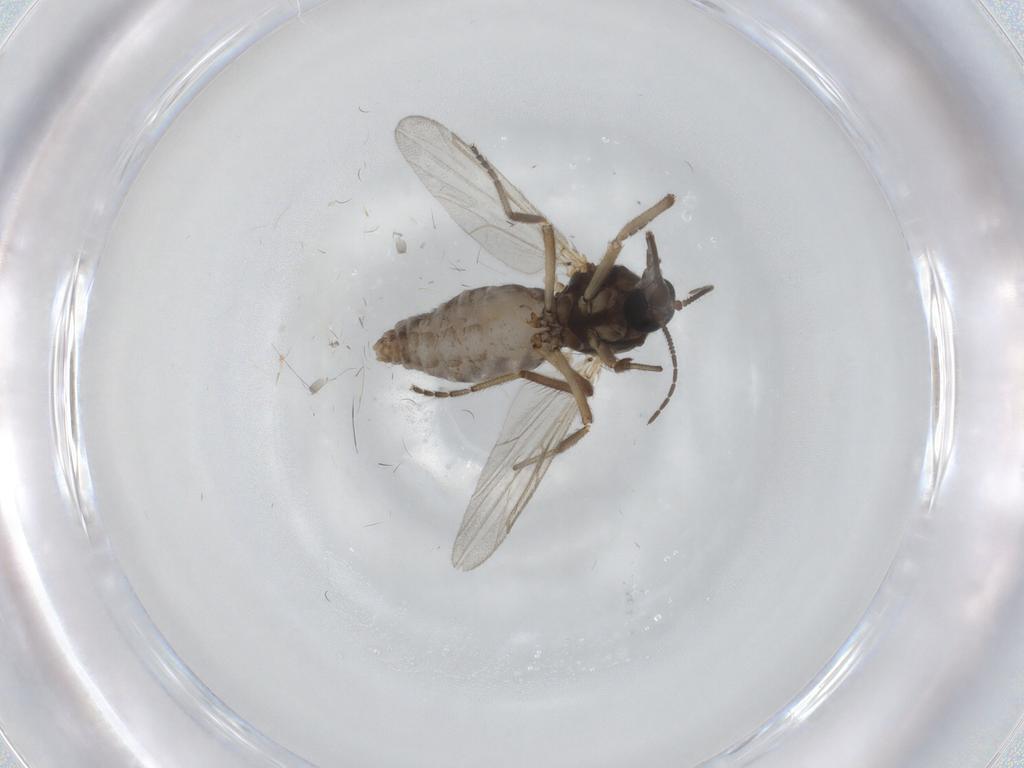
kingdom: Animalia
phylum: Arthropoda
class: Insecta
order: Diptera
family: Ceratopogonidae
